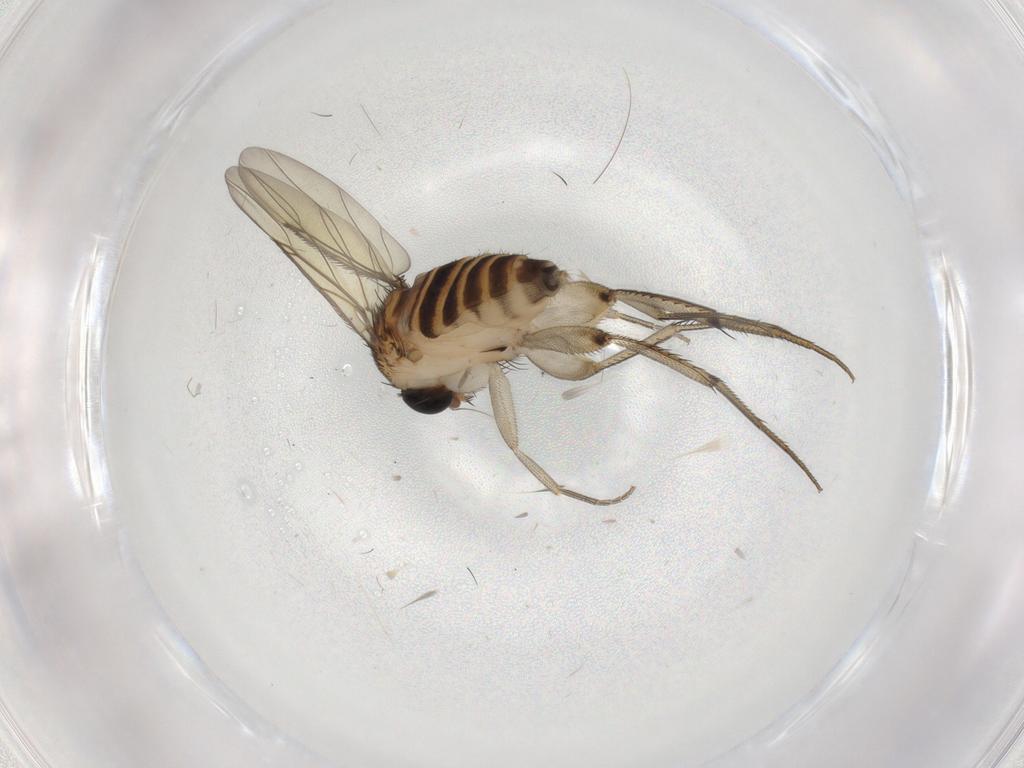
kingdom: Animalia
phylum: Arthropoda
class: Insecta
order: Diptera
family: Phoridae
